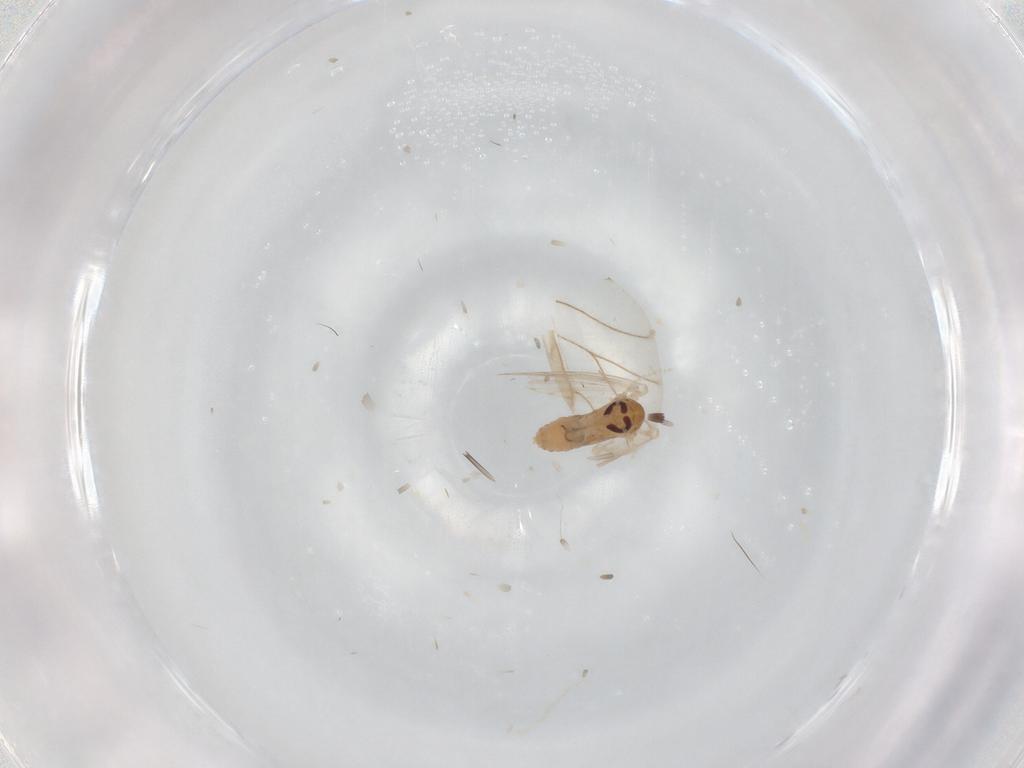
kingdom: Animalia
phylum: Arthropoda
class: Insecta
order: Diptera
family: Psychodidae
